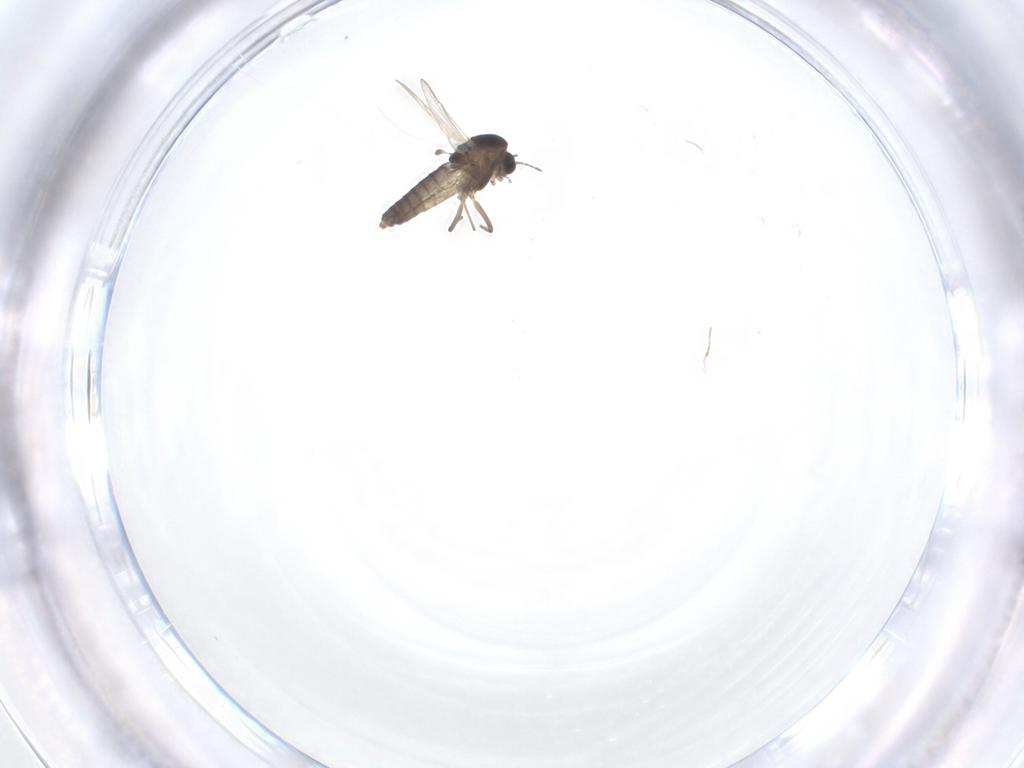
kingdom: Animalia
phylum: Arthropoda
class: Insecta
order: Diptera
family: Chironomidae
